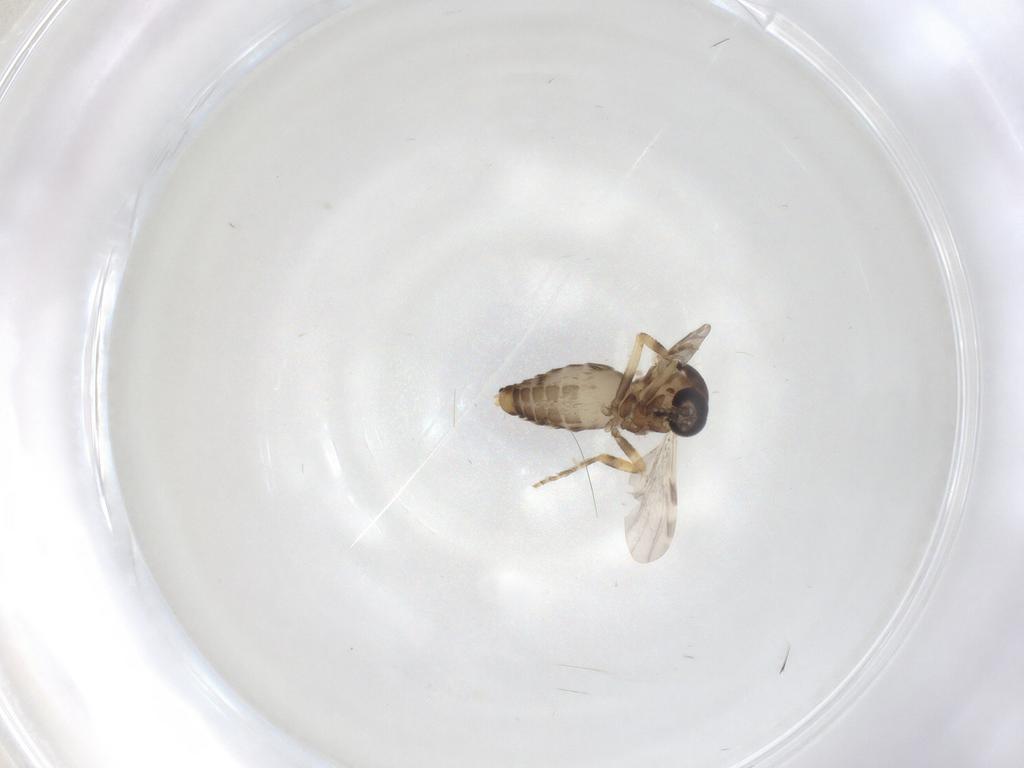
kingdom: Animalia
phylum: Arthropoda
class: Insecta
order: Diptera
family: Ceratopogonidae
